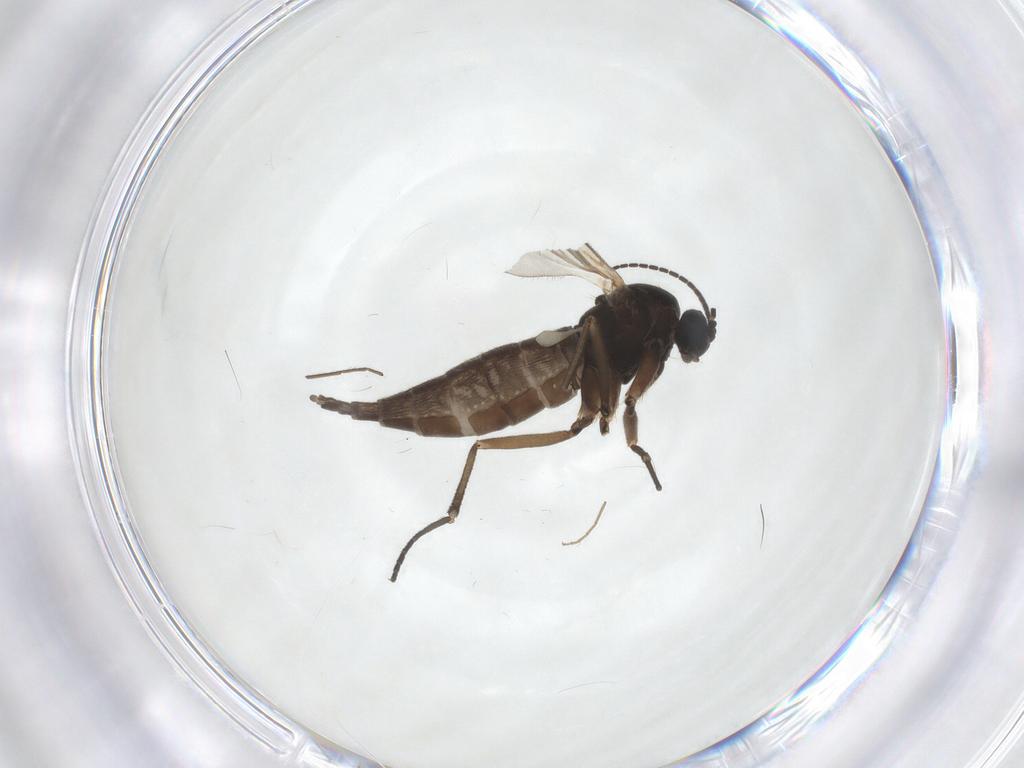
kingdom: Animalia
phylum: Arthropoda
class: Insecta
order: Diptera
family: Sciaridae
